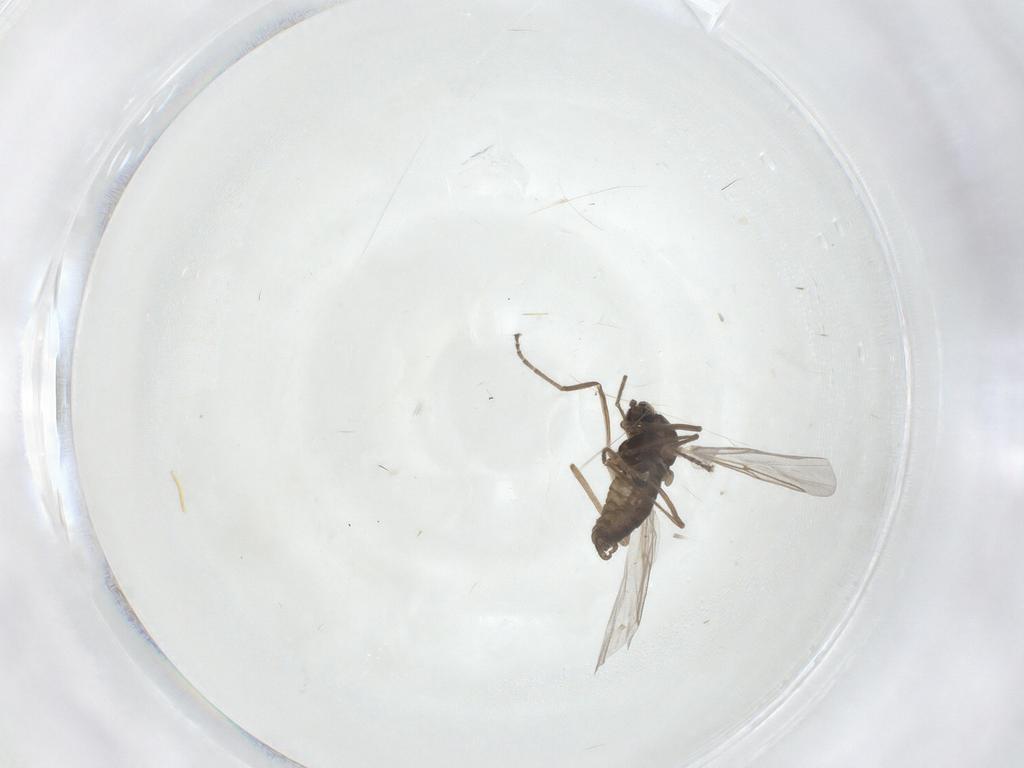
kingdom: Animalia
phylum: Arthropoda
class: Insecta
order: Diptera
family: Cecidomyiidae
